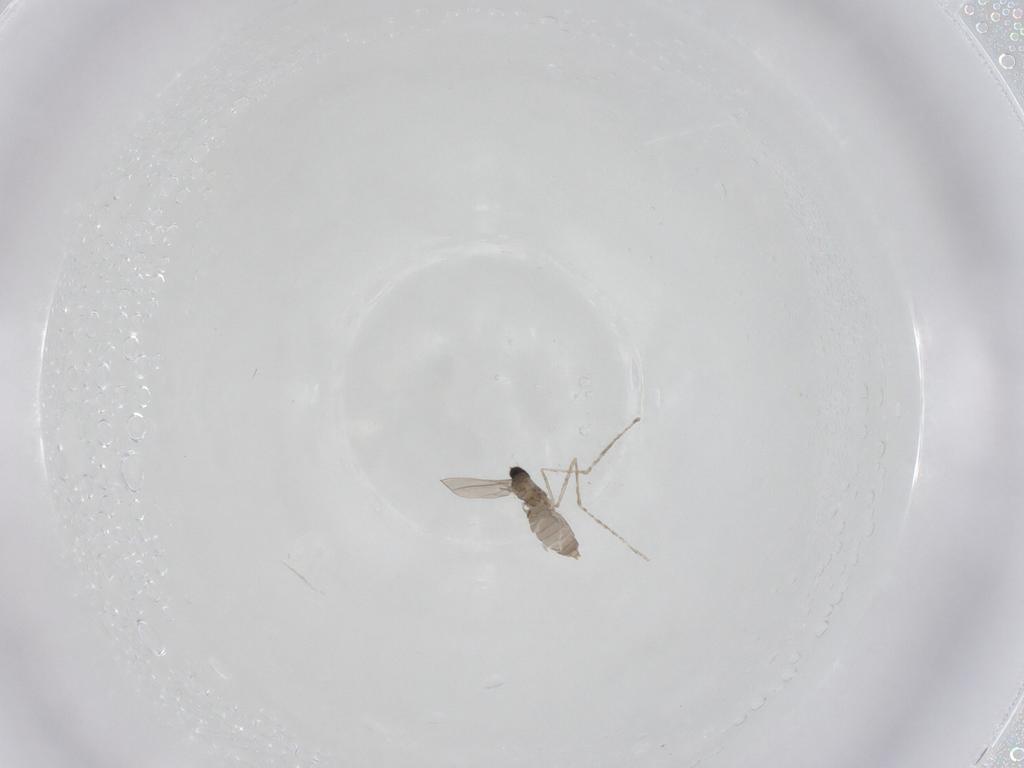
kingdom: Animalia
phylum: Arthropoda
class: Insecta
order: Diptera
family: Cecidomyiidae
